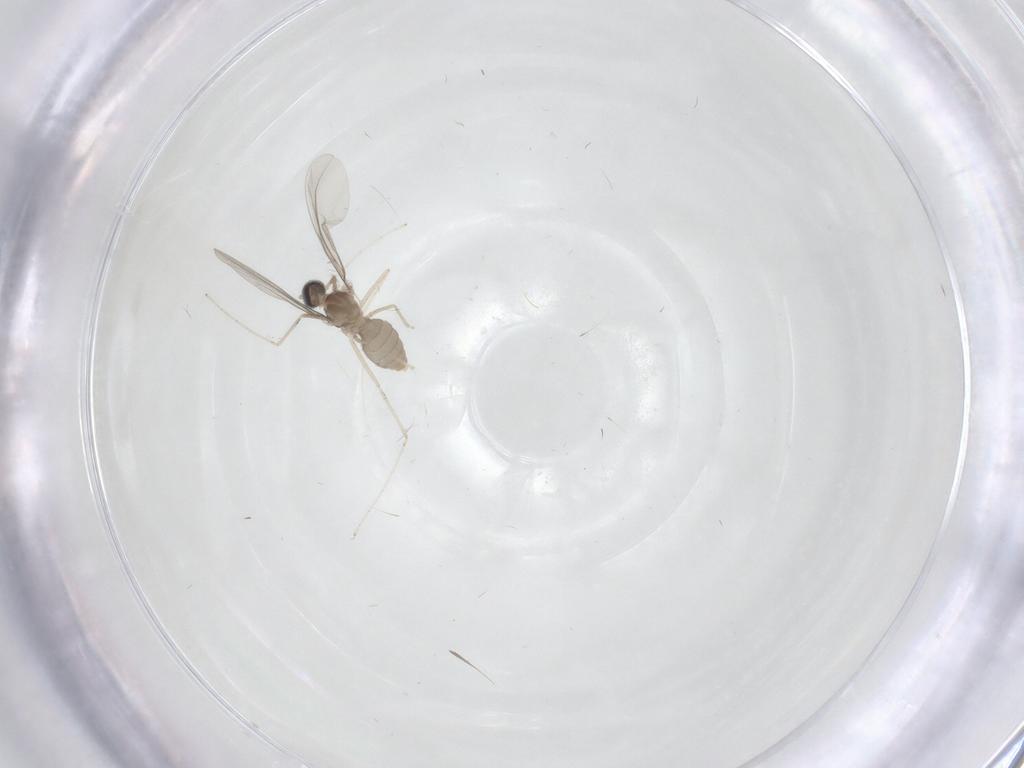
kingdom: Animalia
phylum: Arthropoda
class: Insecta
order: Diptera
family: Cecidomyiidae
